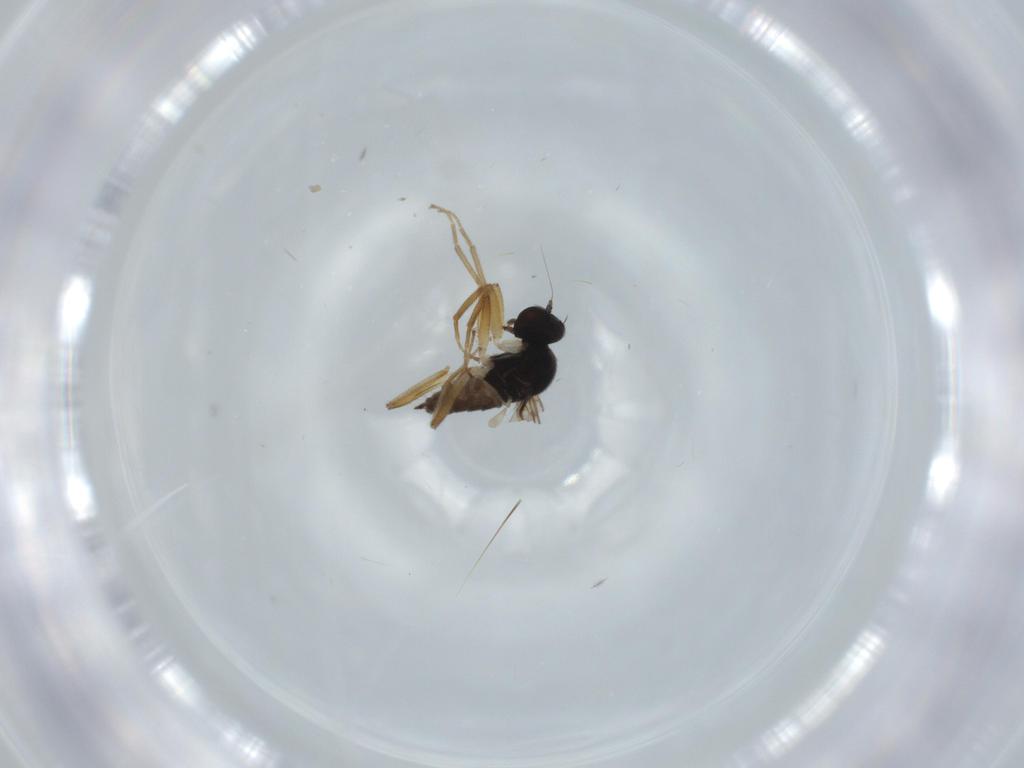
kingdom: Animalia
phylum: Arthropoda
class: Insecta
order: Diptera
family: Hybotidae
